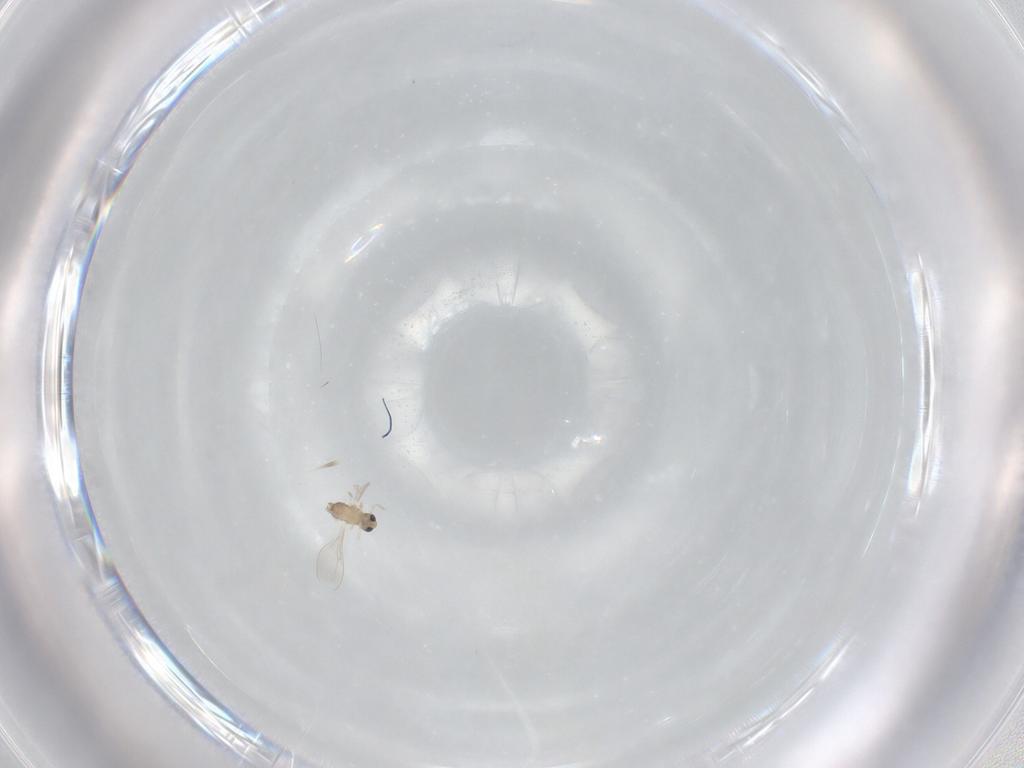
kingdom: Animalia
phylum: Arthropoda
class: Insecta
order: Diptera
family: Cecidomyiidae
